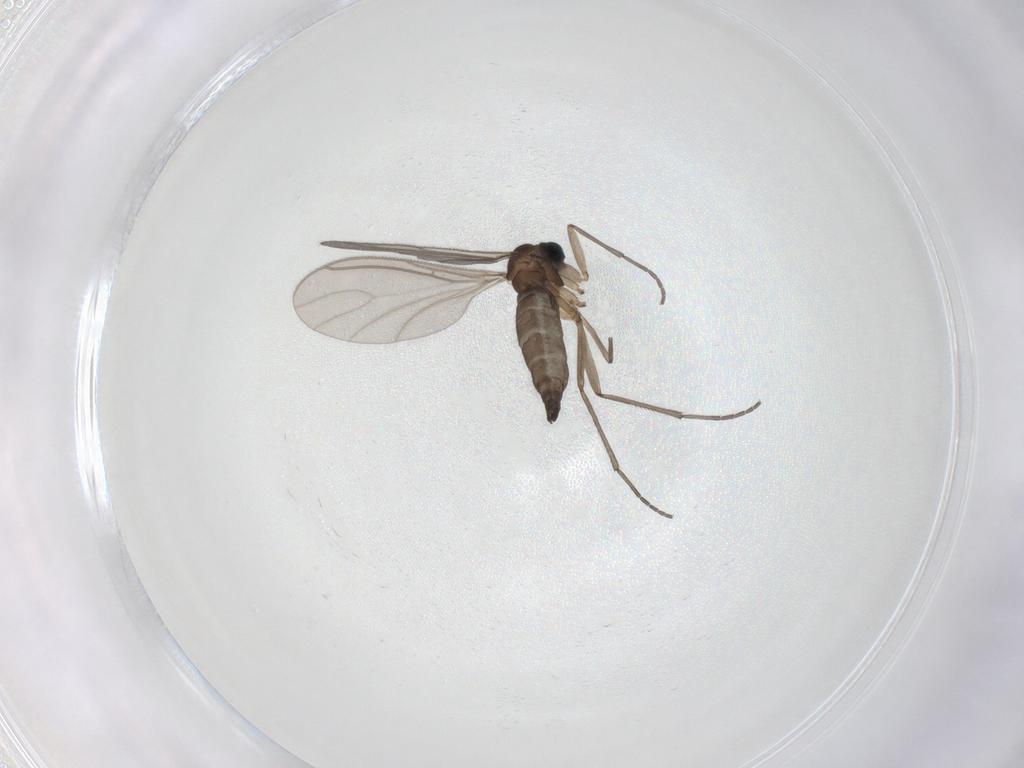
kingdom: Animalia
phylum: Arthropoda
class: Insecta
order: Diptera
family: Sciaridae
